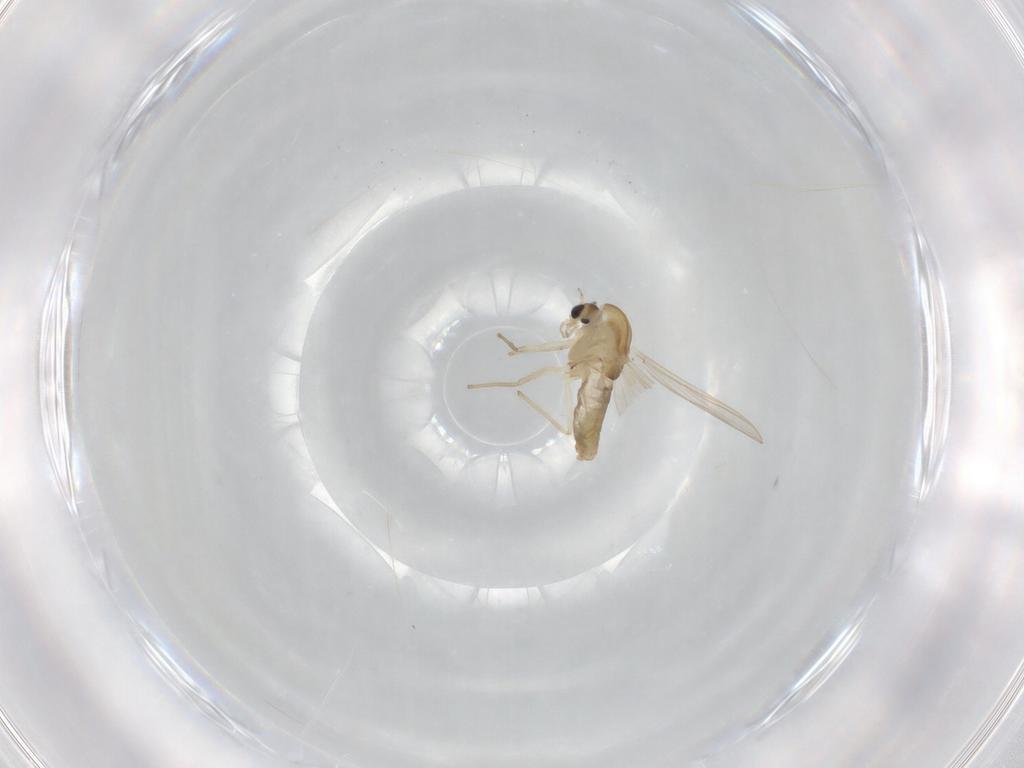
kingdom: Animalia
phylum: Arthropoda
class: Insecta
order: Diptera
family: Chironomidae
